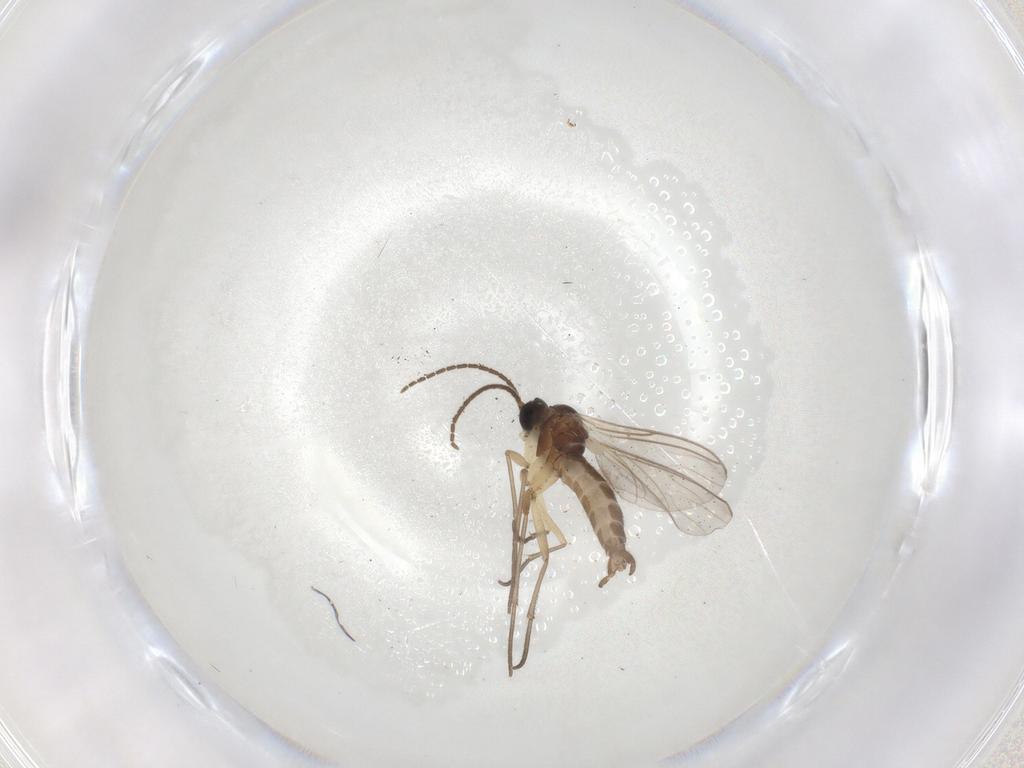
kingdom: Animalia
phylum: Arthropoda
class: Insecta
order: Diptera
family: Sciaridae
